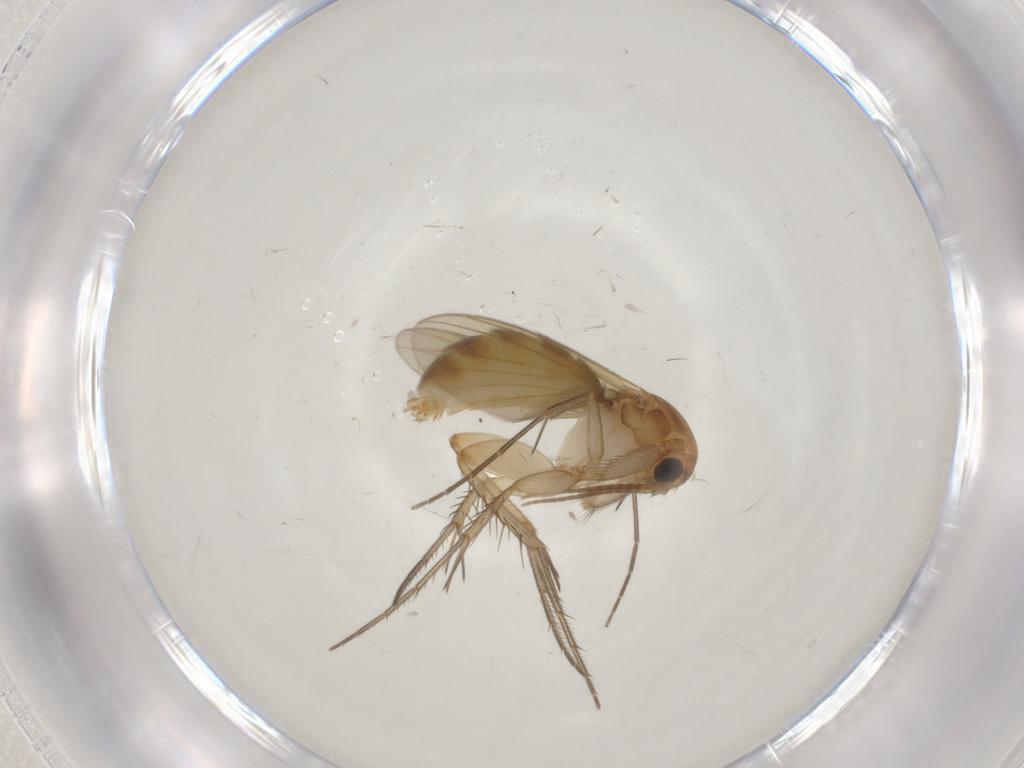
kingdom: Animalia
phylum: Arthropoda
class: Insecta
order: Diptera
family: Mycetophilidae
